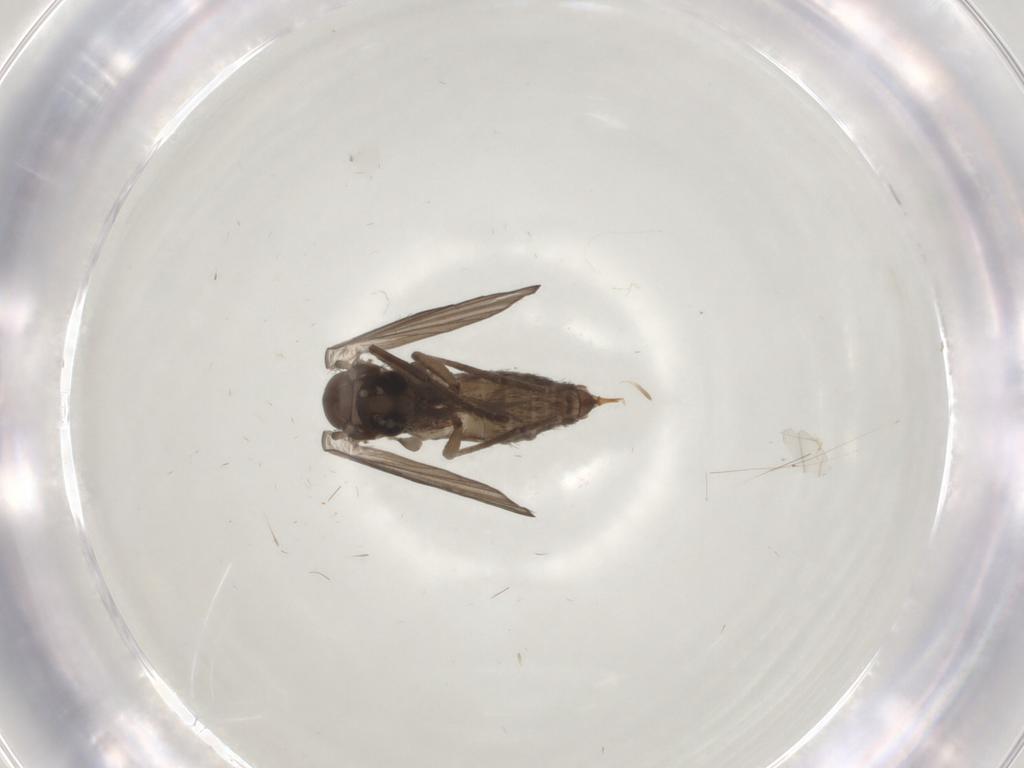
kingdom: Animalia
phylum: Arthropoda
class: Insecta
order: Diptera
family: Psychodidae
